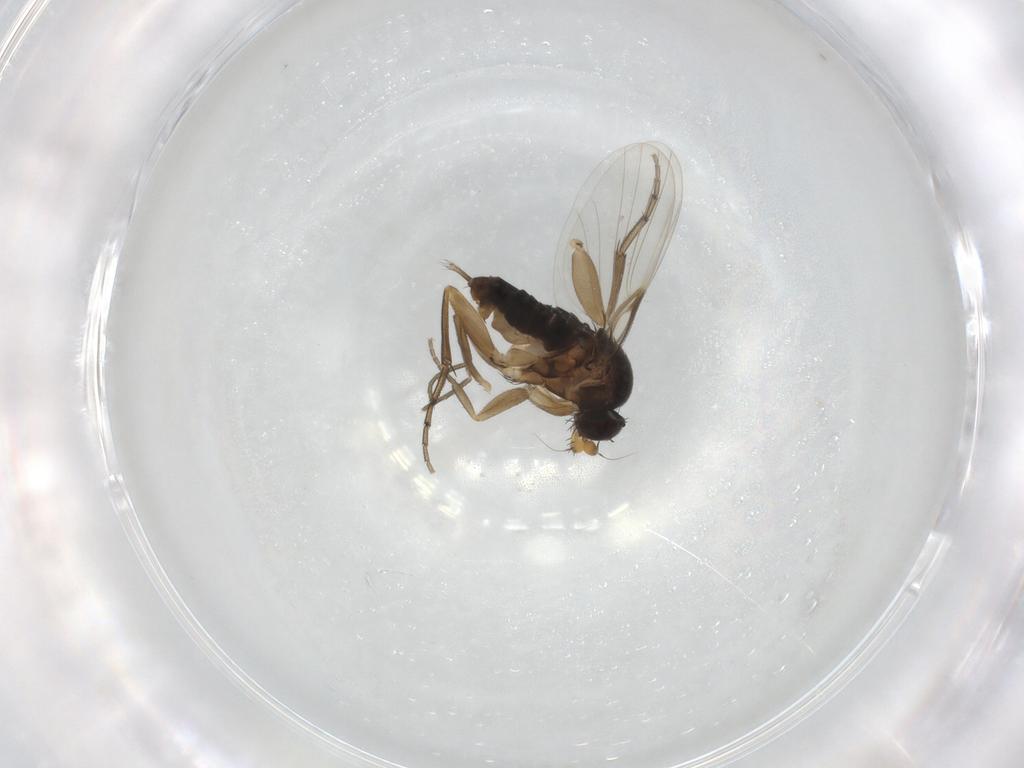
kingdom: Animalia
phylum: Arthropoda
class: Insecta
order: Diptera
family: Phoridae
